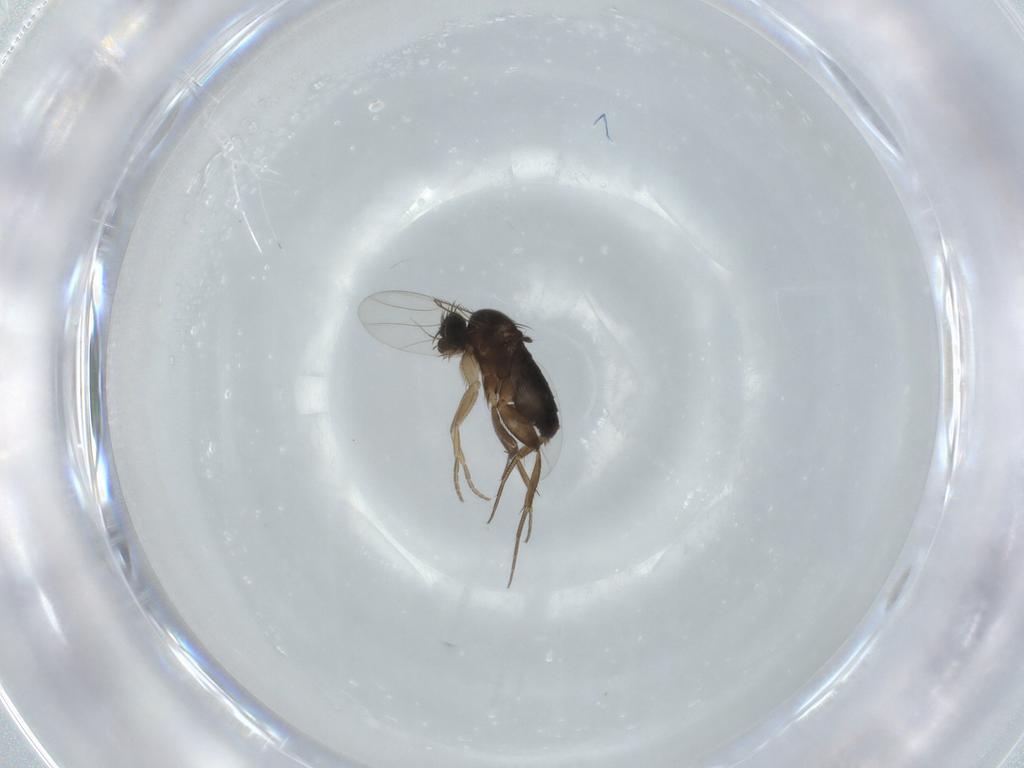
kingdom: Animalia
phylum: Arthropoda
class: Insecta
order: Diptera
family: Phoridae
